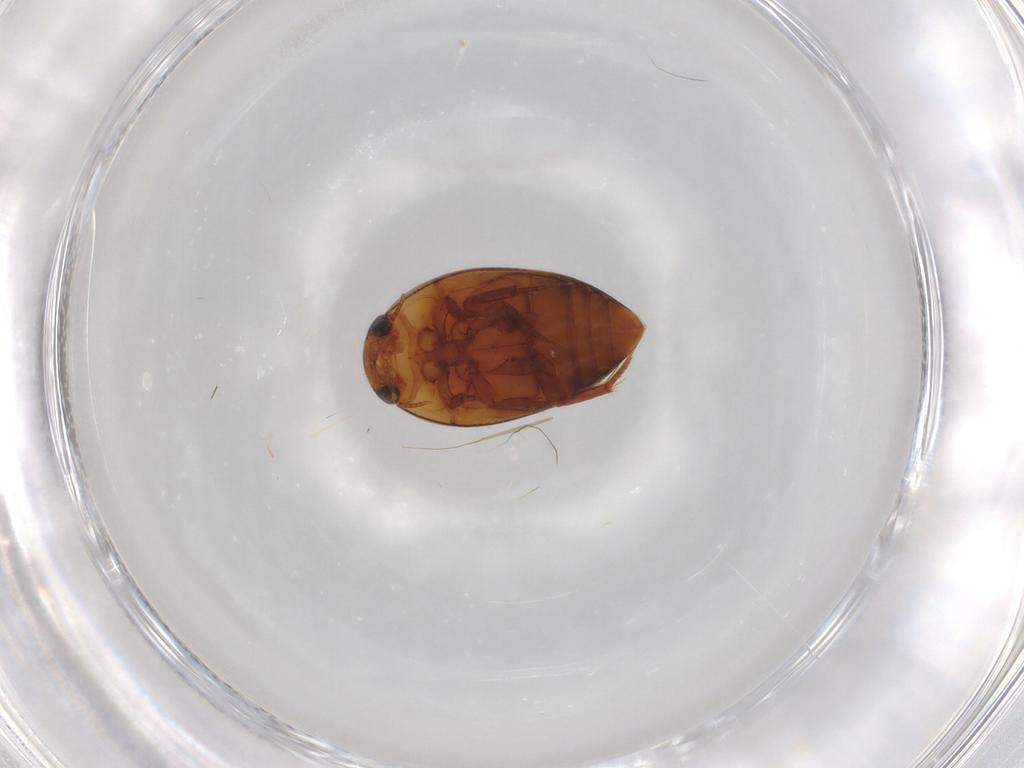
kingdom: Animalia
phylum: Arthropoda
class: Insecta
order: Coleoptera
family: Noteridae
